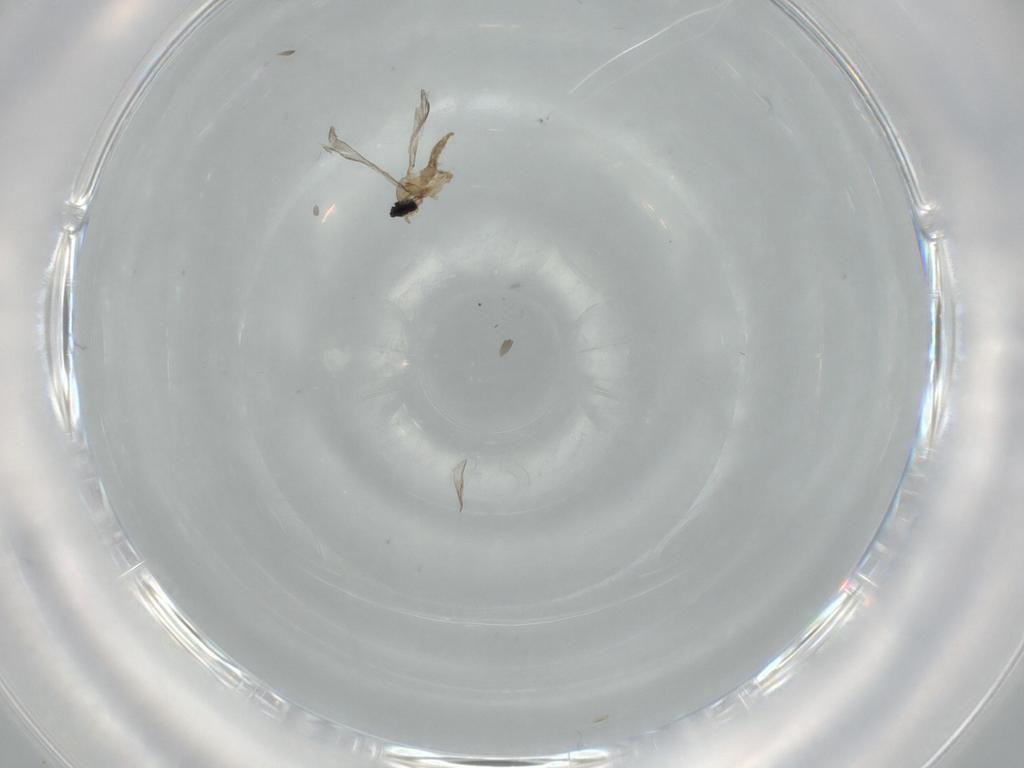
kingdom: Animalia
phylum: Arthropoda
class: Insecta
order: Diptera
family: Cecidomyiidae
